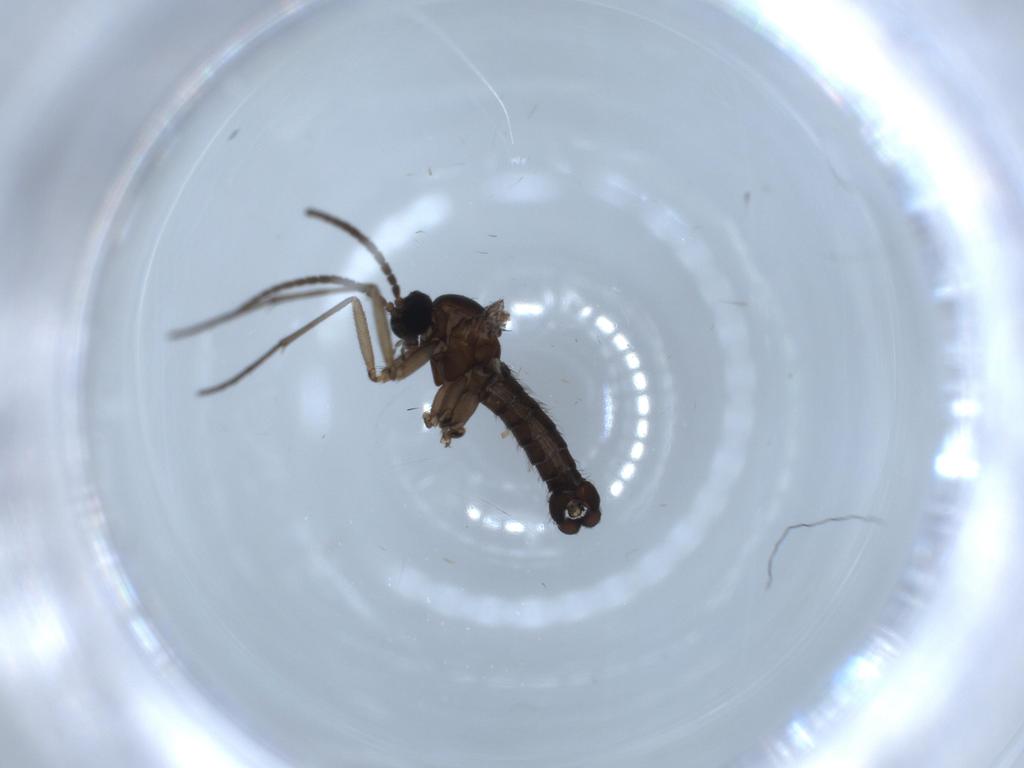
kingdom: Animalia
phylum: Arthropoda
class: Insecta
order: Diptera
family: Sciaridae
